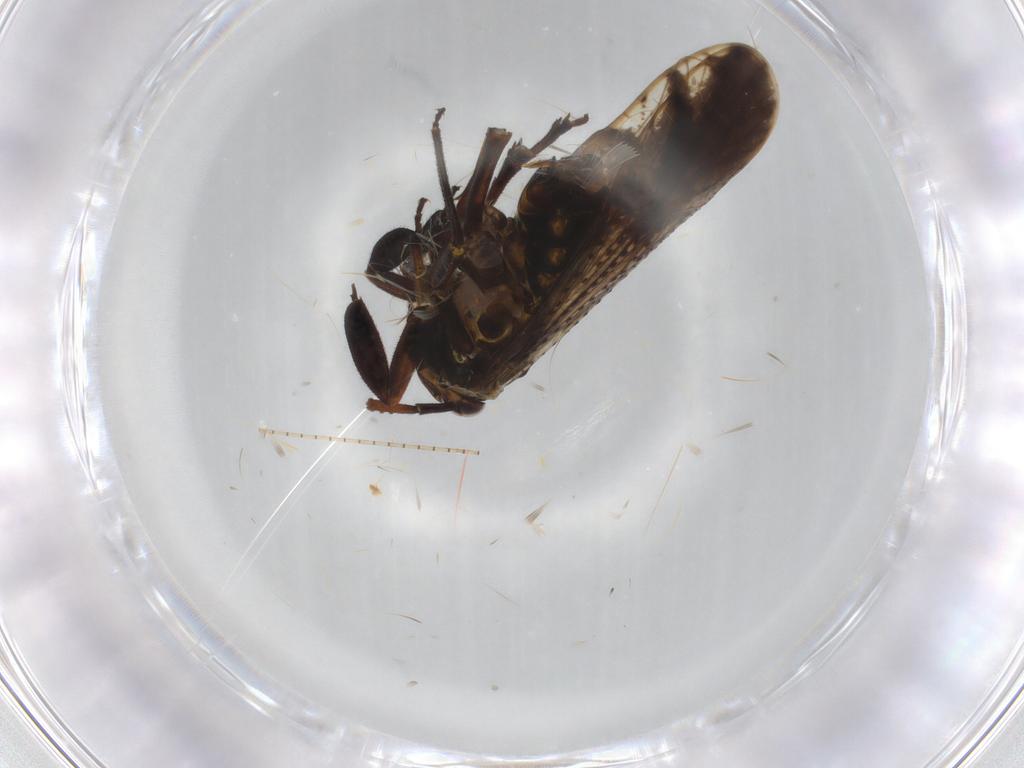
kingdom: Animalia
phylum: Arthropoda
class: Insecta
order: Hemiptera
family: Delphacidae
